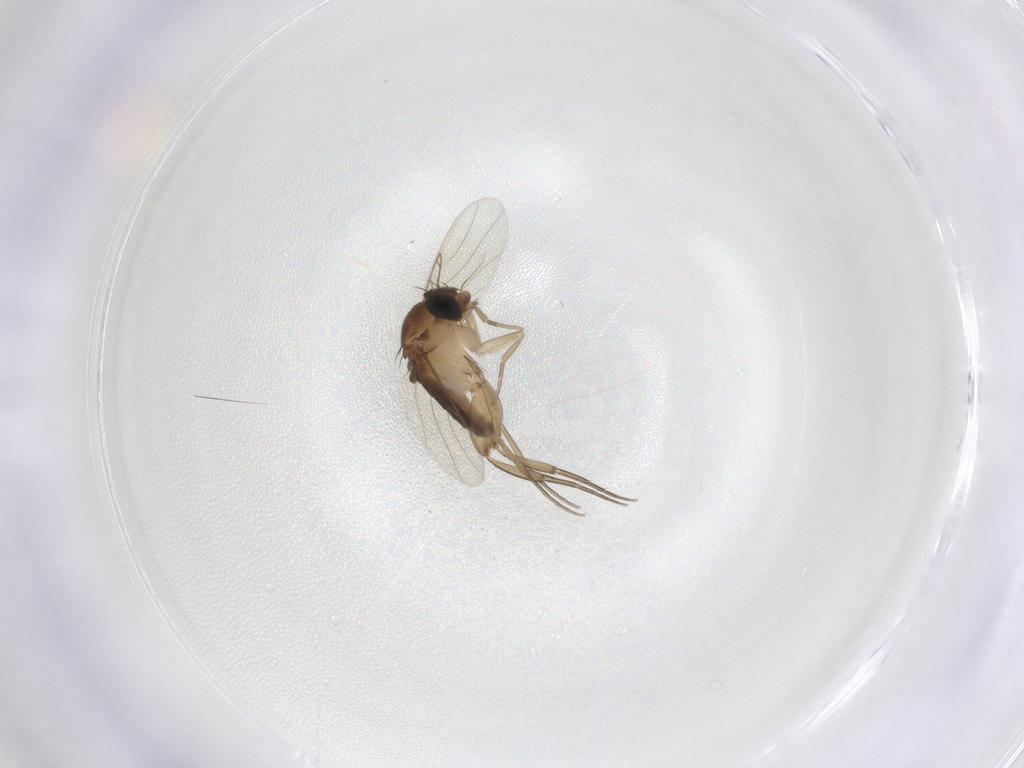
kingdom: Animalia
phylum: Arthropoda
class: Insecta
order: Diptera
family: Phoridae
